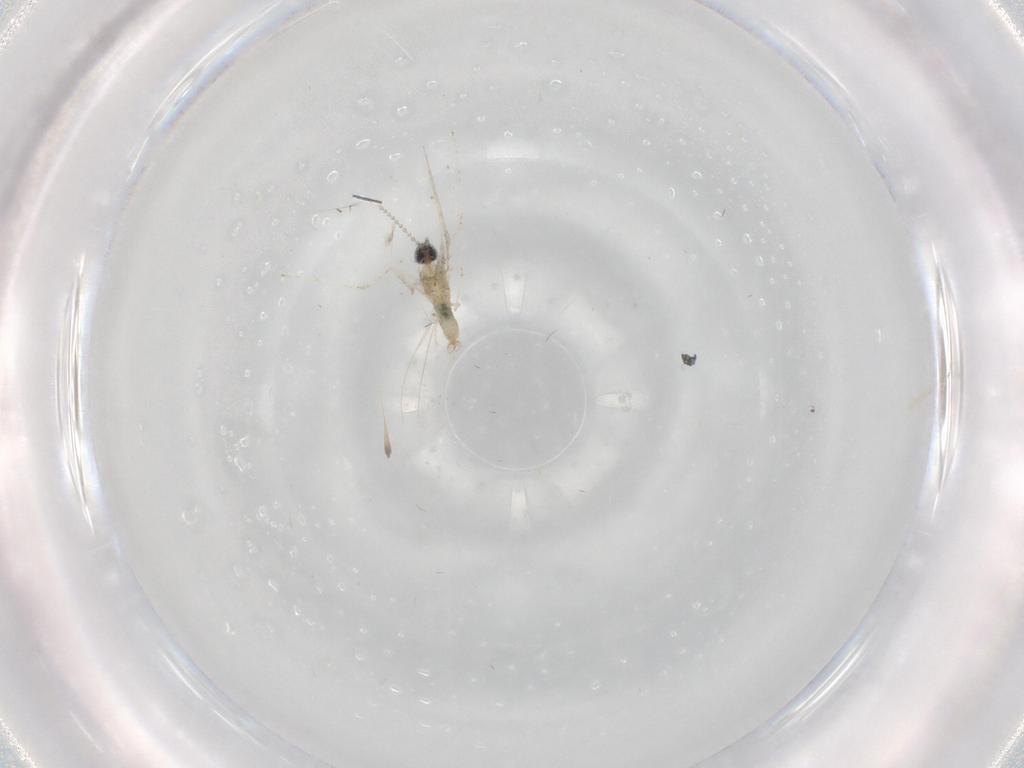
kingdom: Animalia
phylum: Arthropoda
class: Insecta
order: Diptera
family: Cecidomyiidae
